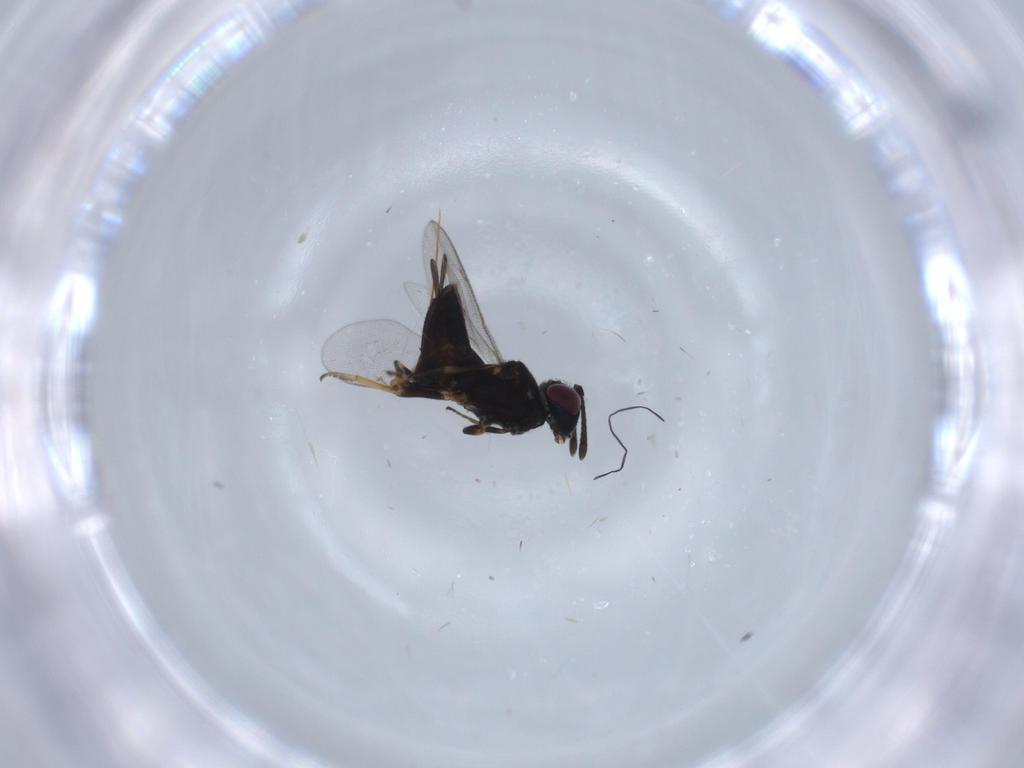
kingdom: Animalia
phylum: Arthropoda
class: Insecta
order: Hymenoptera
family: Eupelmidae
